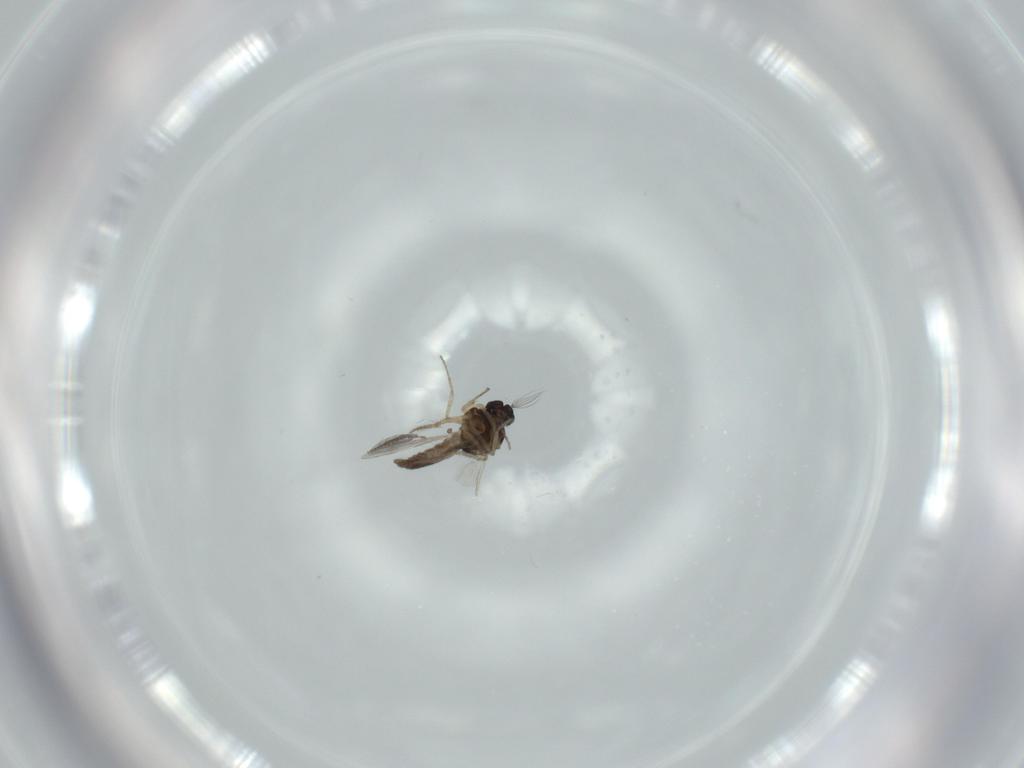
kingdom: Animalia
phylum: Arthropoda
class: Insecta
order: Diptera
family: Ceratopogonidae
